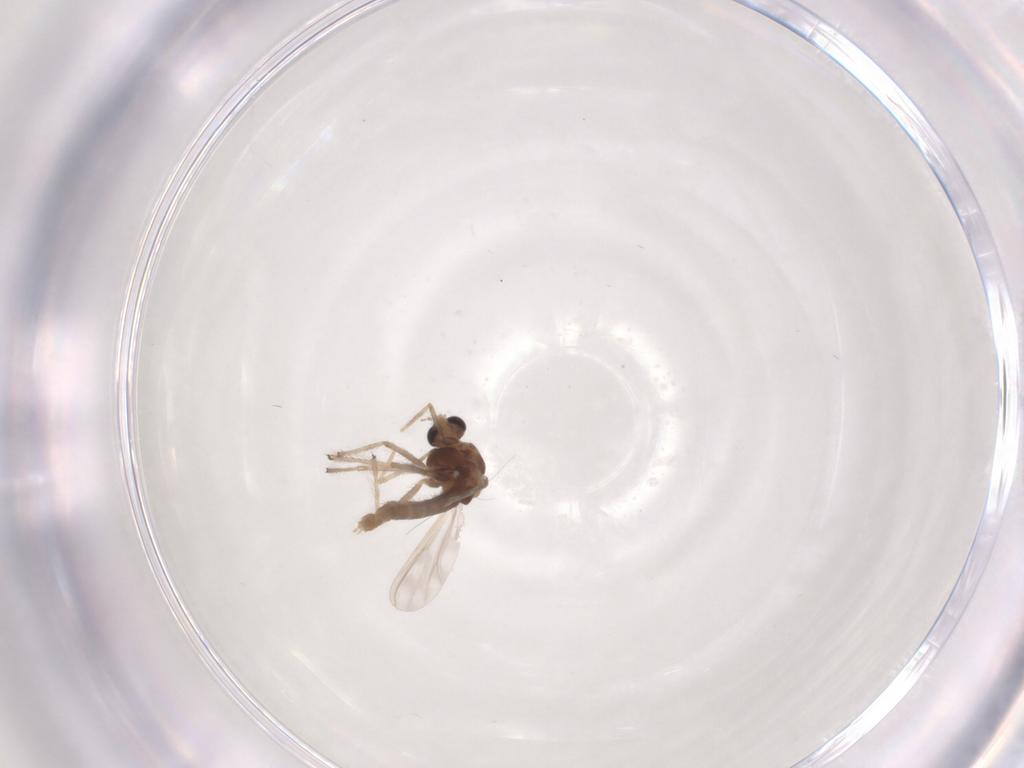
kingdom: Animalia
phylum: Arthropoda
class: Insecta
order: Diptera
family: Chironomidae
